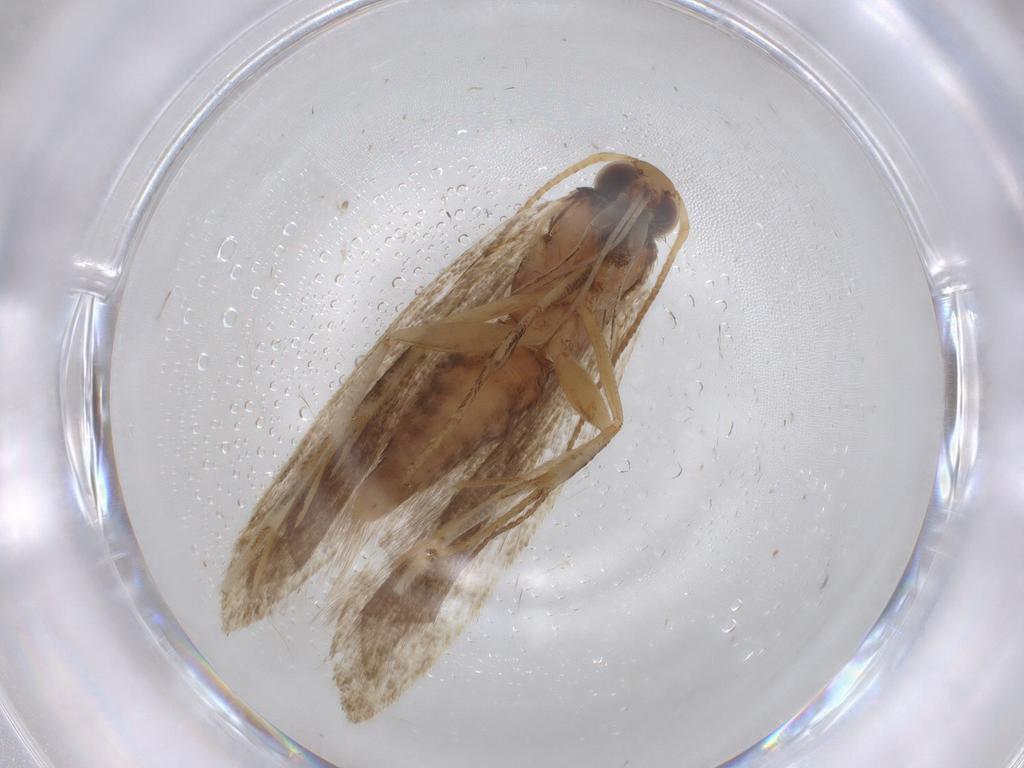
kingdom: Animalia
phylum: Arthropoda
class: Insecta
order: Lepidoptera
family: Gelechiidae
